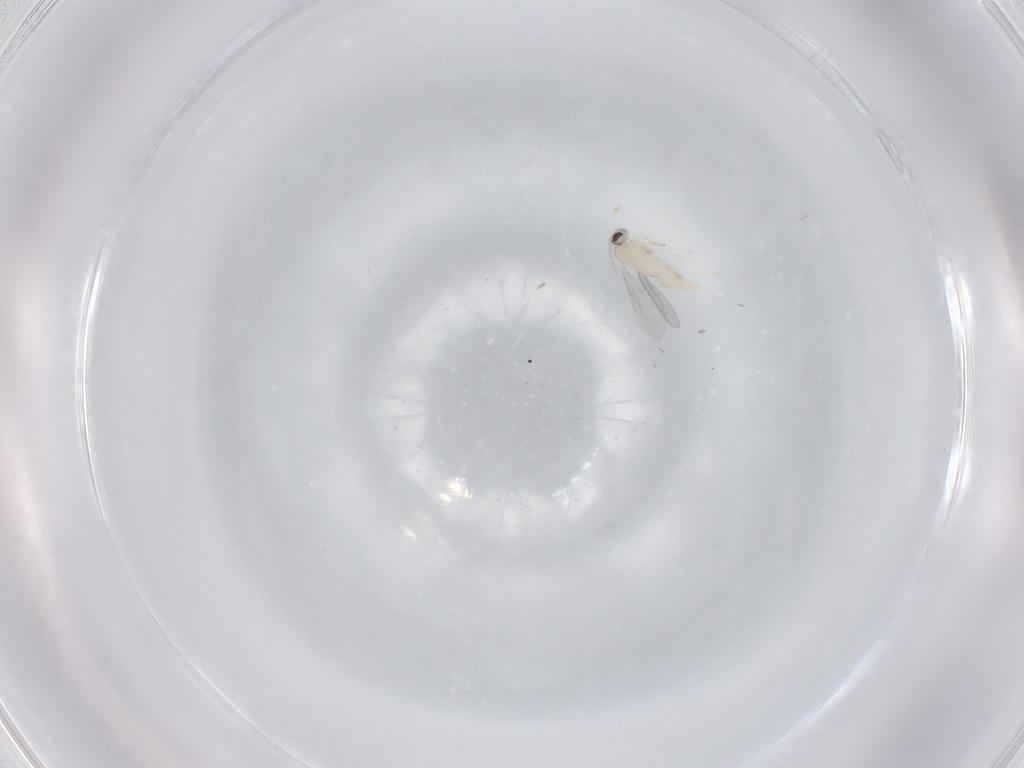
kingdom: Animalia
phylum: Arthropoda
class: Insecta
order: Diptera
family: Cecidomyiidae
